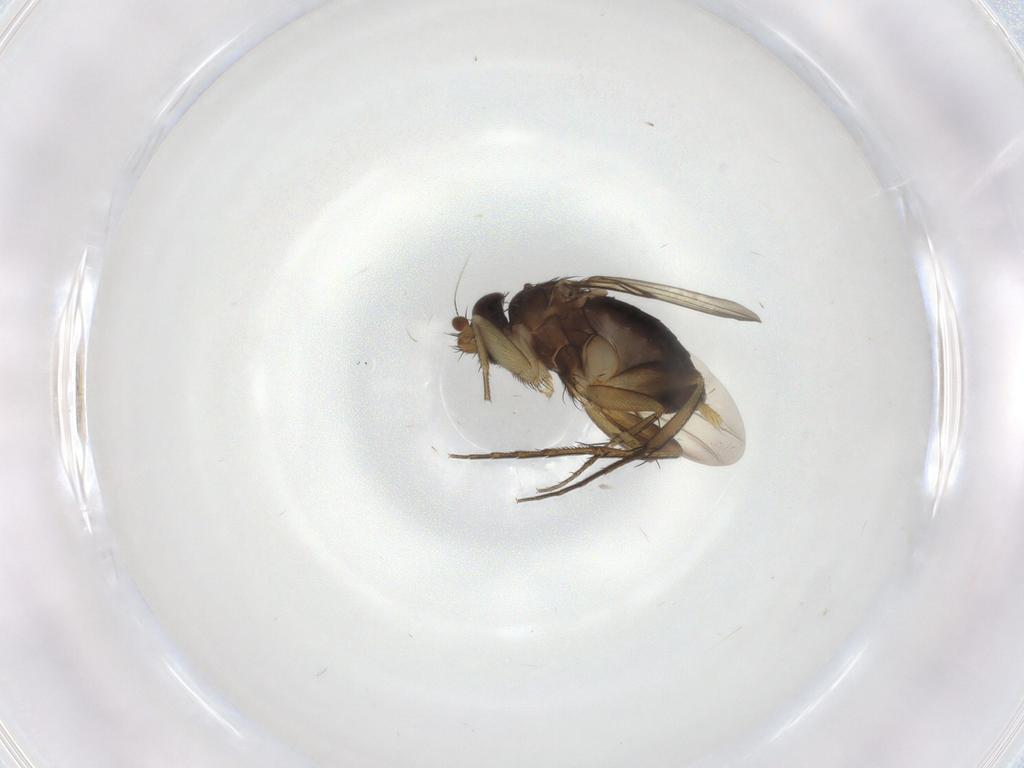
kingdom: Animalia
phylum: Arthropoda
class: Insecta
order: Diptera
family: Phoridae
